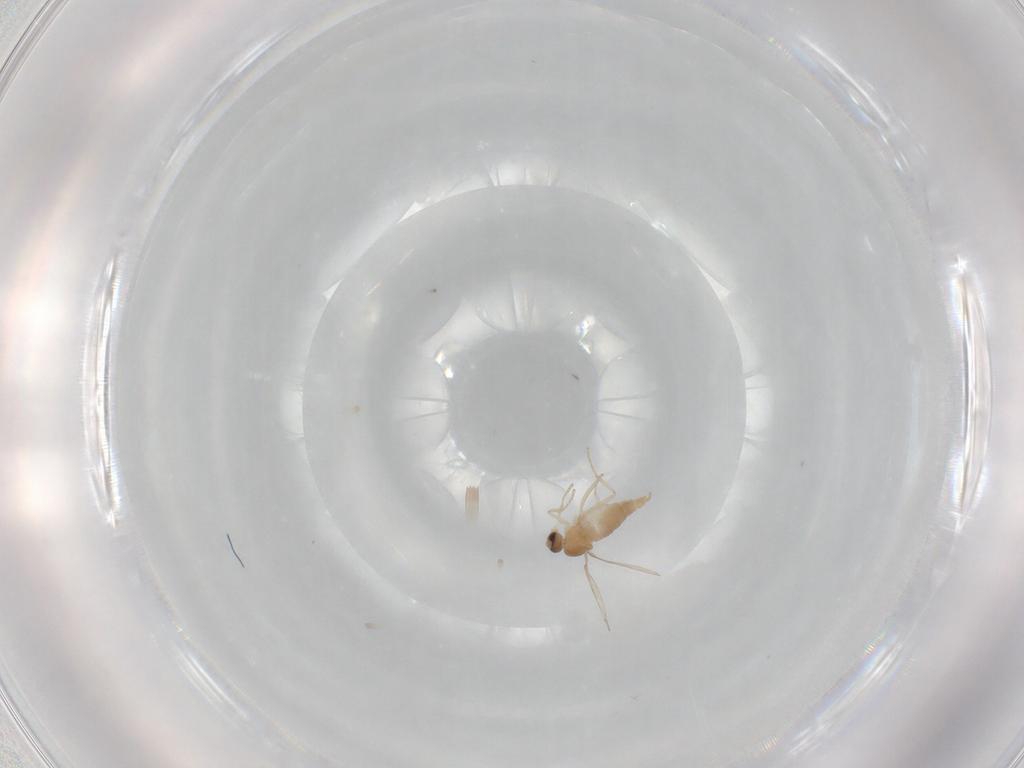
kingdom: Animalia
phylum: Arthropoda
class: Insecta
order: Diptera
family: Cecidomyiidae
